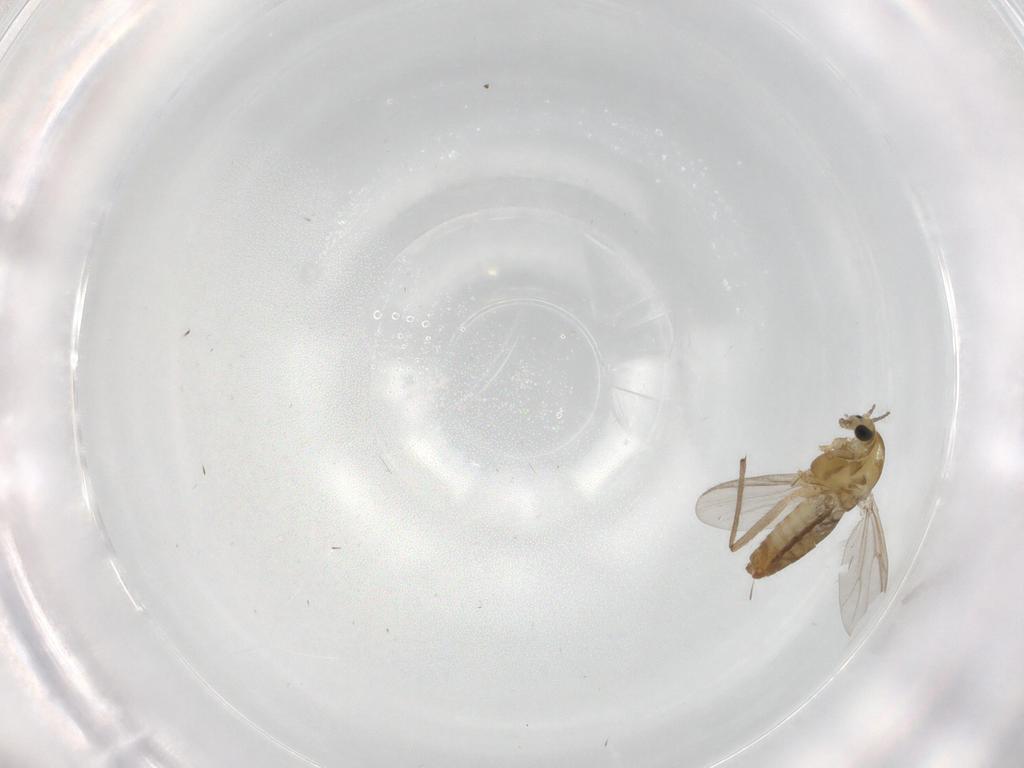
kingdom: Animalia
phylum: Arthropoda
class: Insecta
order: Diptera
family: Chironomidae
